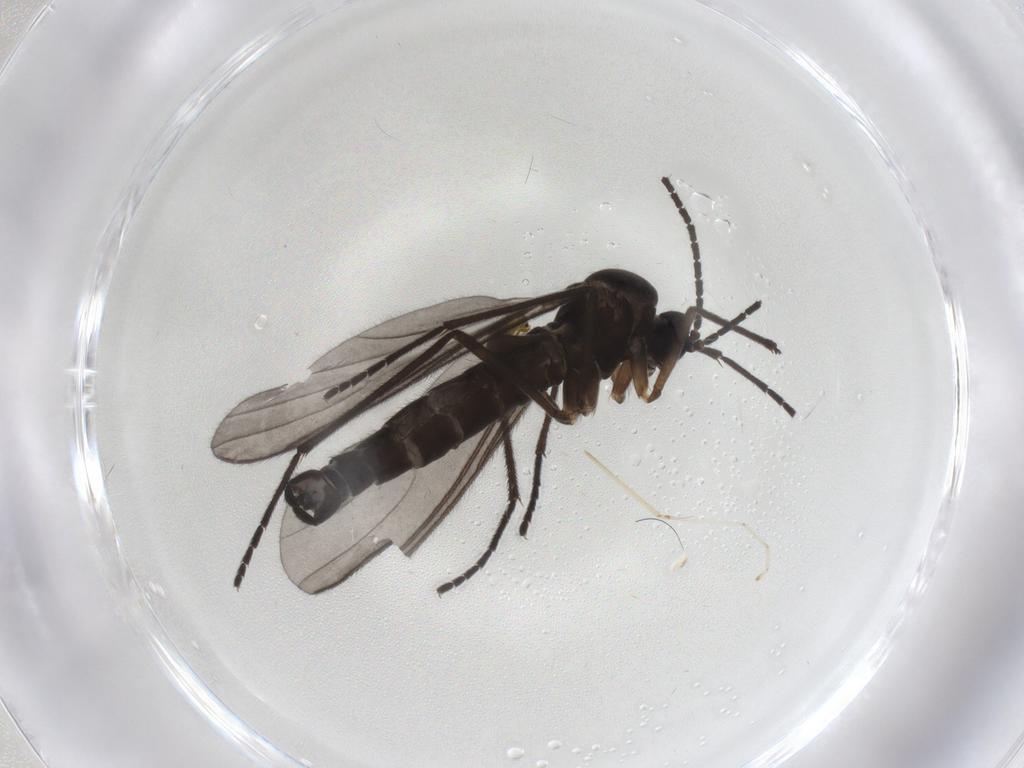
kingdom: Animalia
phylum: Arthropoda
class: Insecta
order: Diptera
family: Sciaridae
